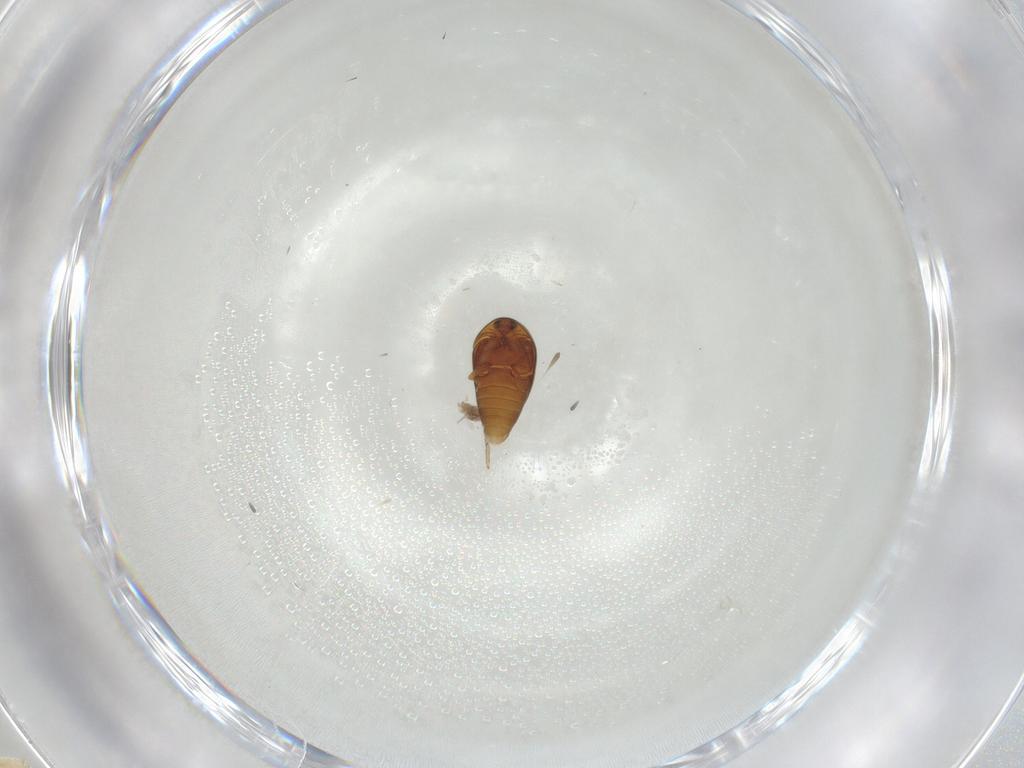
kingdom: Animalia
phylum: Arthropoda
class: Insecta
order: Coleoptera
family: Corylophidae
